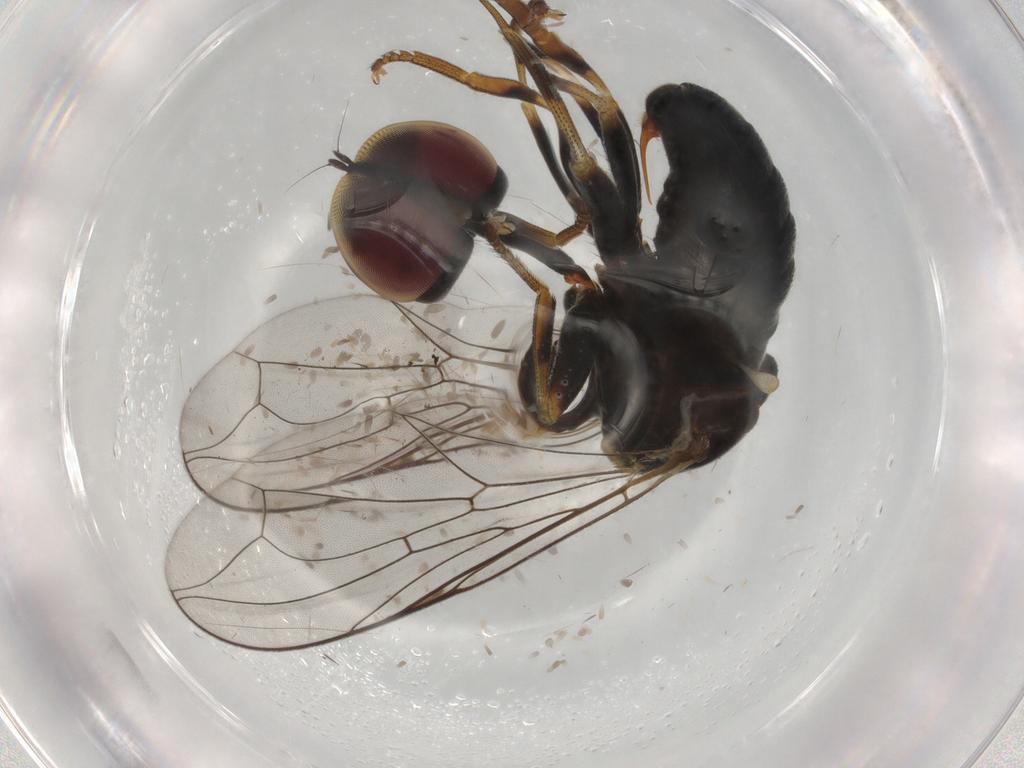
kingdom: Animalia
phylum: Arthropoda
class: Insecta
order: Diptera
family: Pipunculidae
